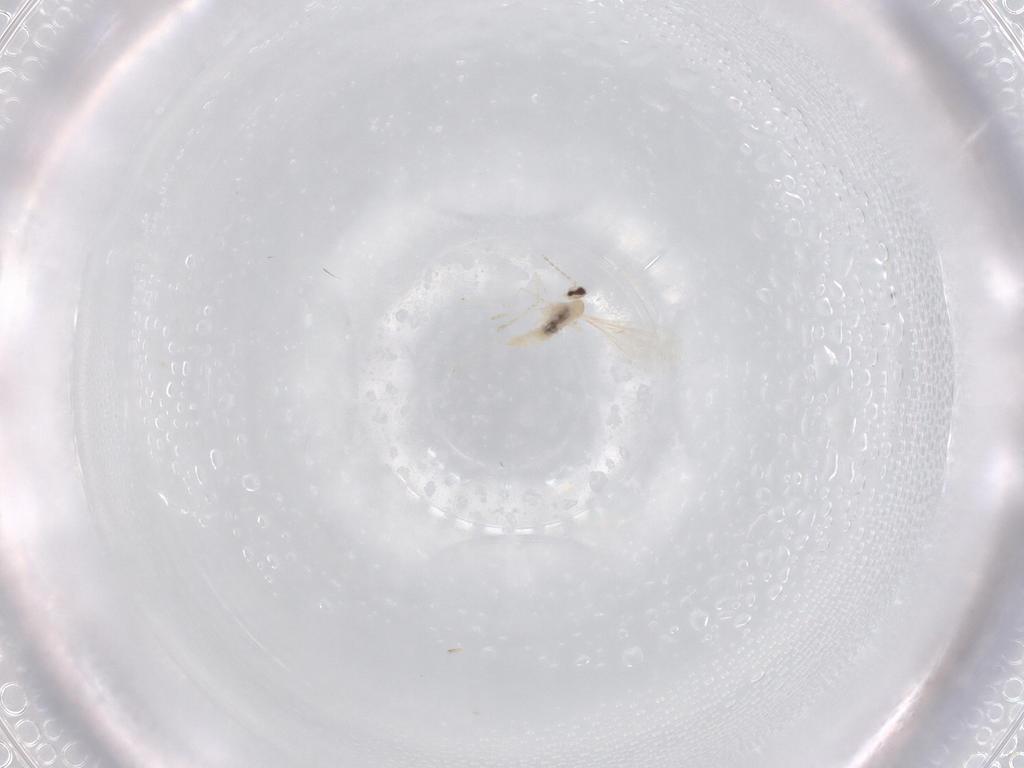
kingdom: Animalia
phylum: Arthropoda
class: Insecta
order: Diptera
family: Cecidomyiidae
